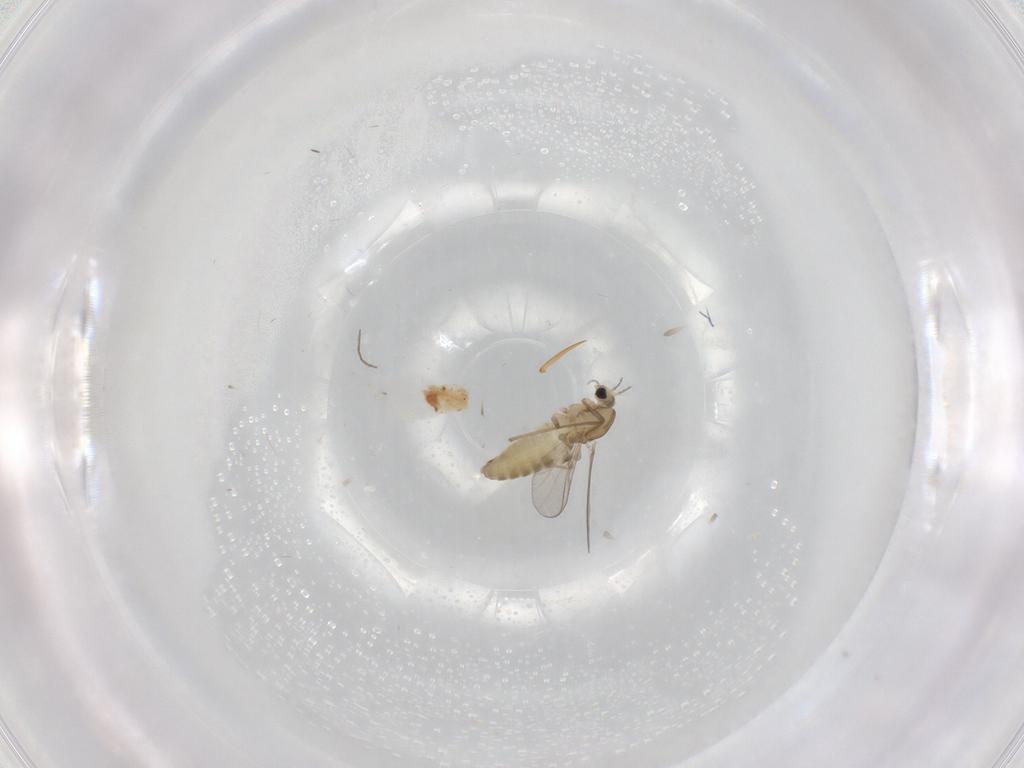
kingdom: Animalia
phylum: Arthropoda
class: Insecta
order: Diptera
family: Chironomidae
